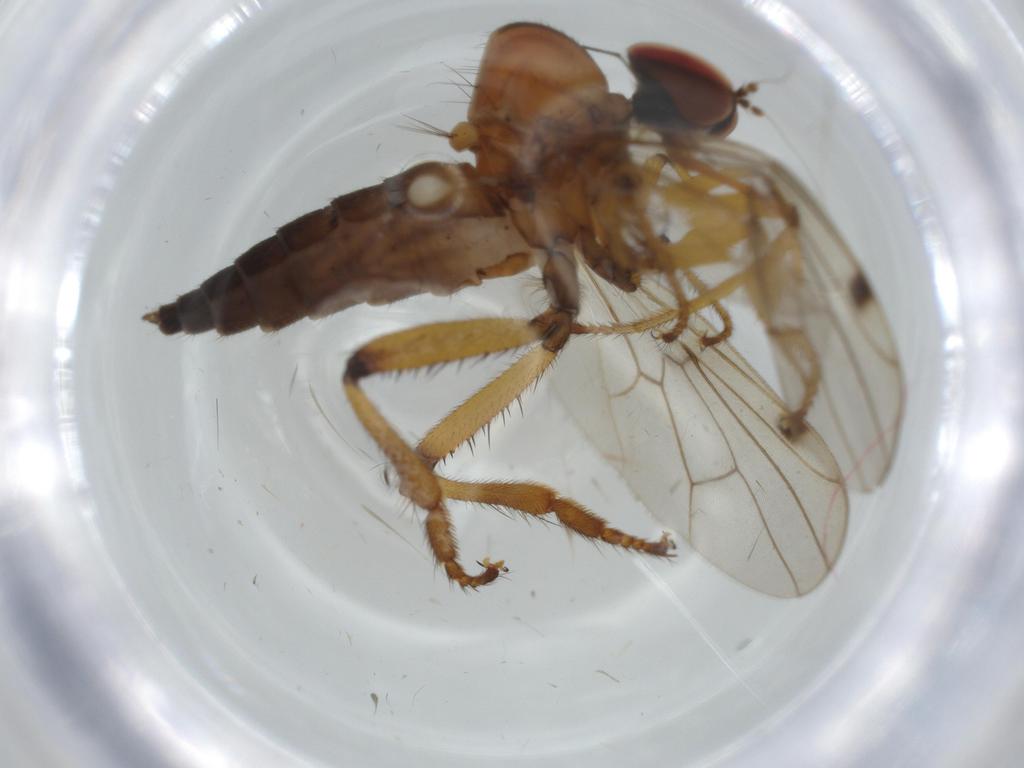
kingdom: Animalia
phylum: Arthropoda
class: Insecta
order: Diptera
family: Hybotidae
